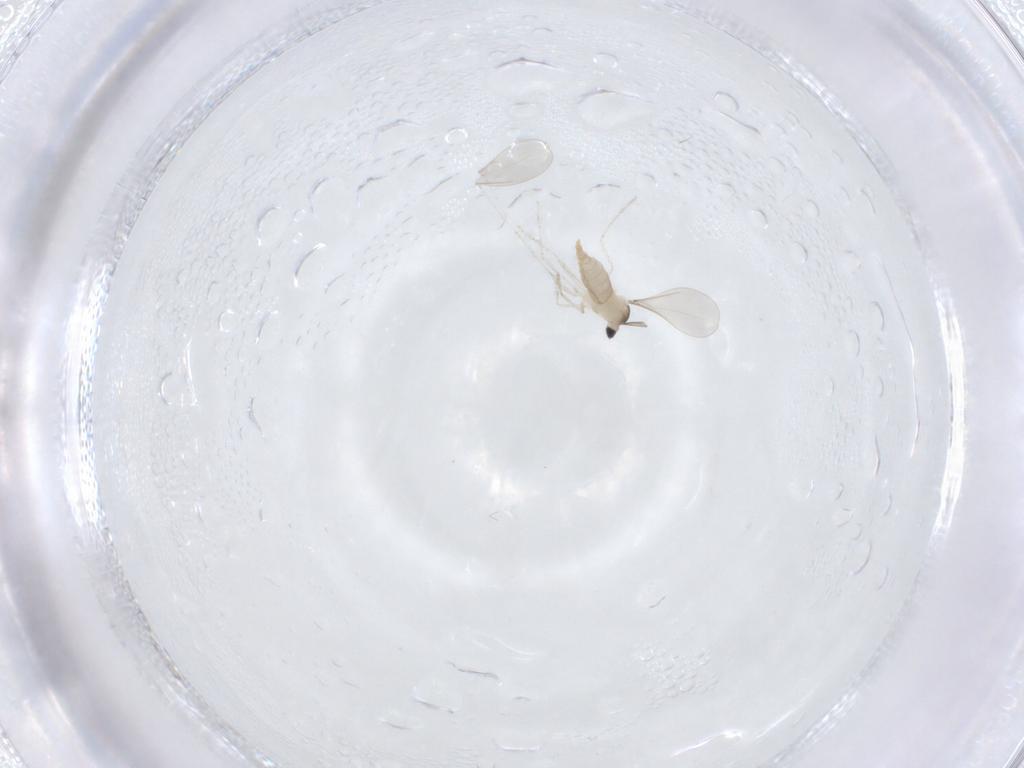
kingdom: Animalia
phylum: Arthropoda
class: Insecta
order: Diptera
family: Cecidomyiidae
